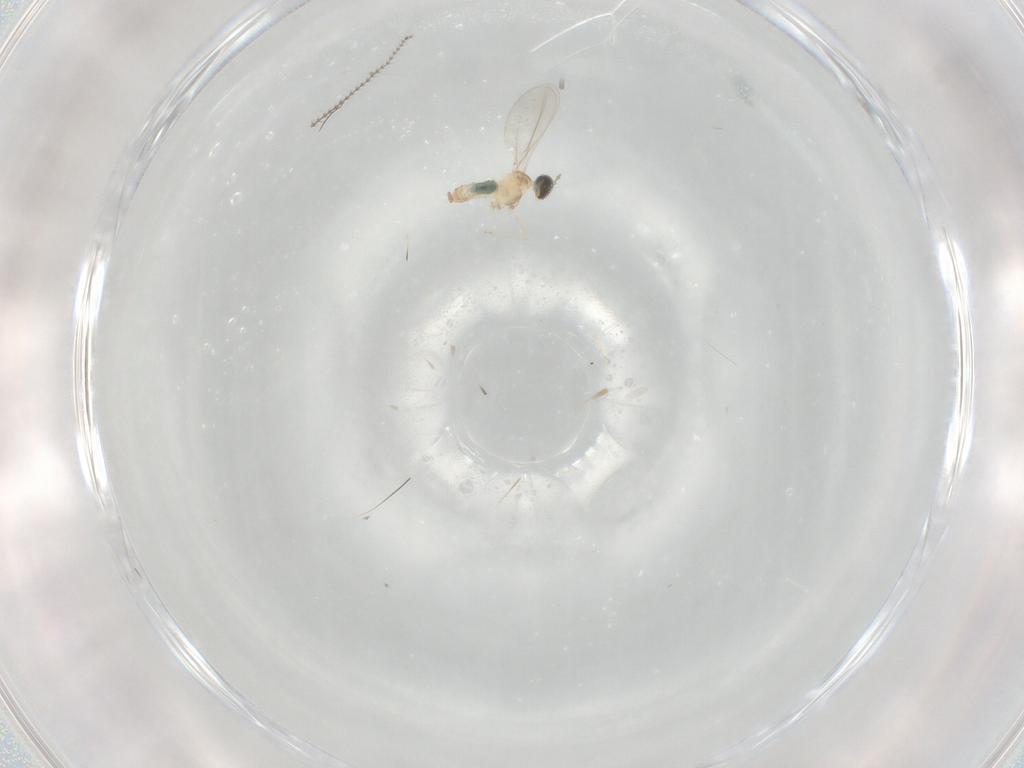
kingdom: Animalia
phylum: Arthropoda
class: Insecta
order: Diptera
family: Cecidomyiidae
